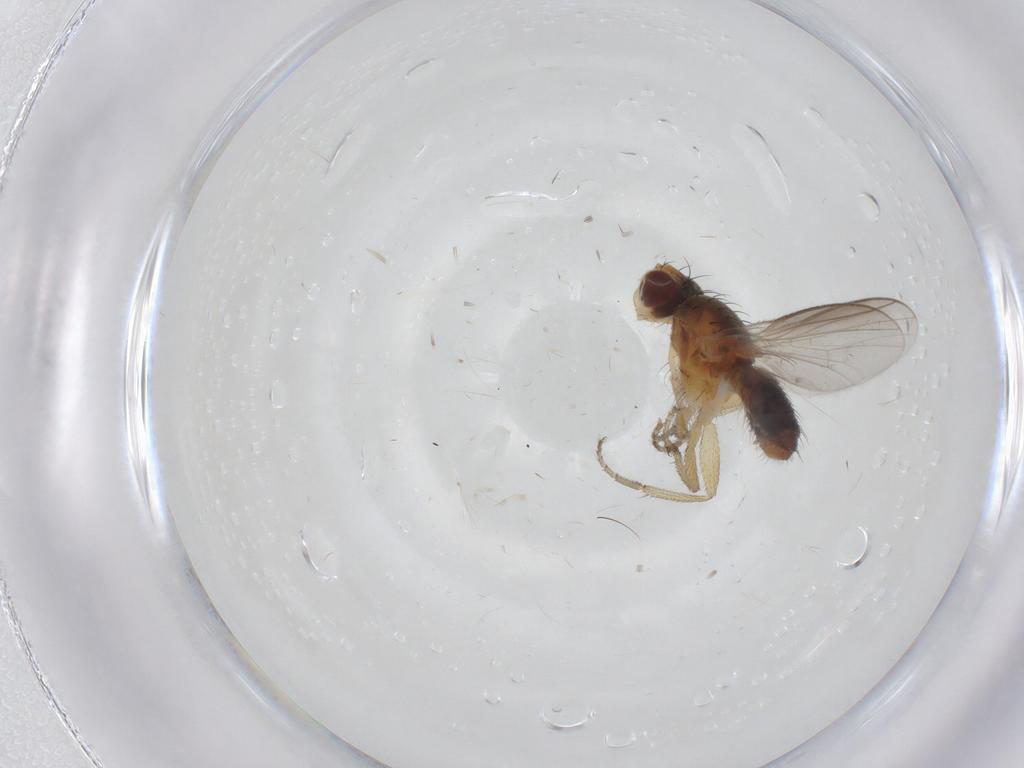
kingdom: Animalia
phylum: Arthropoda
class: Insecta
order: Diptera
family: Heleomyzidae
